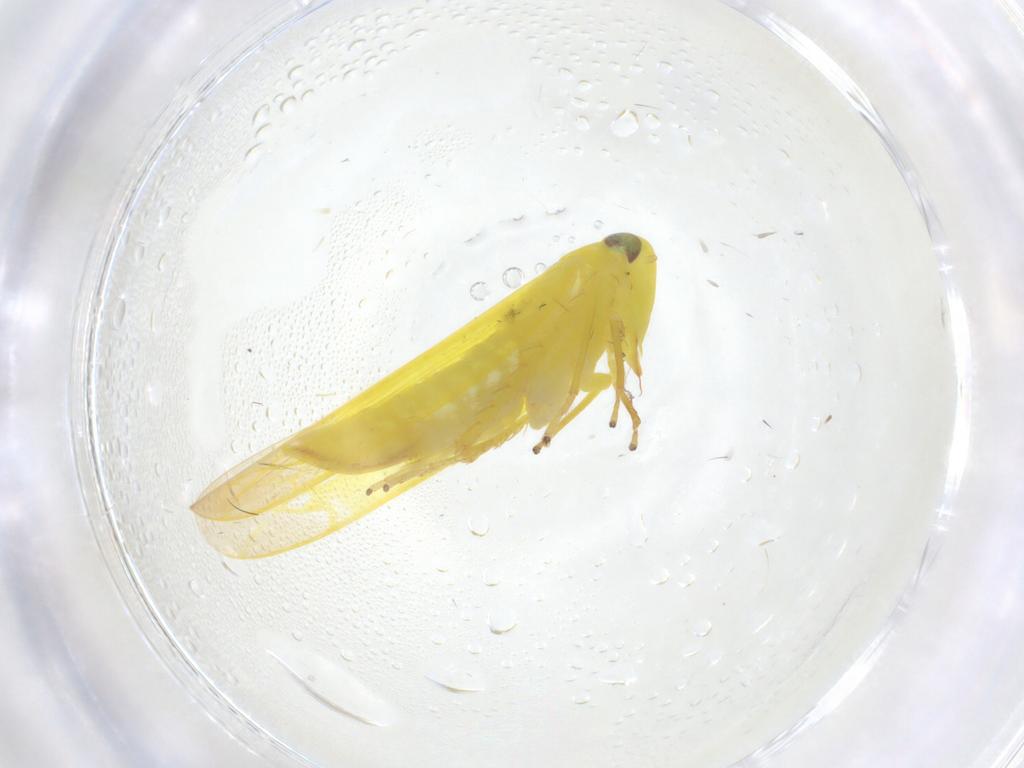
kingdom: Animalia
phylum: Arthropoda
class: Insecta
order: Hemiptera
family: Cicadellidae
